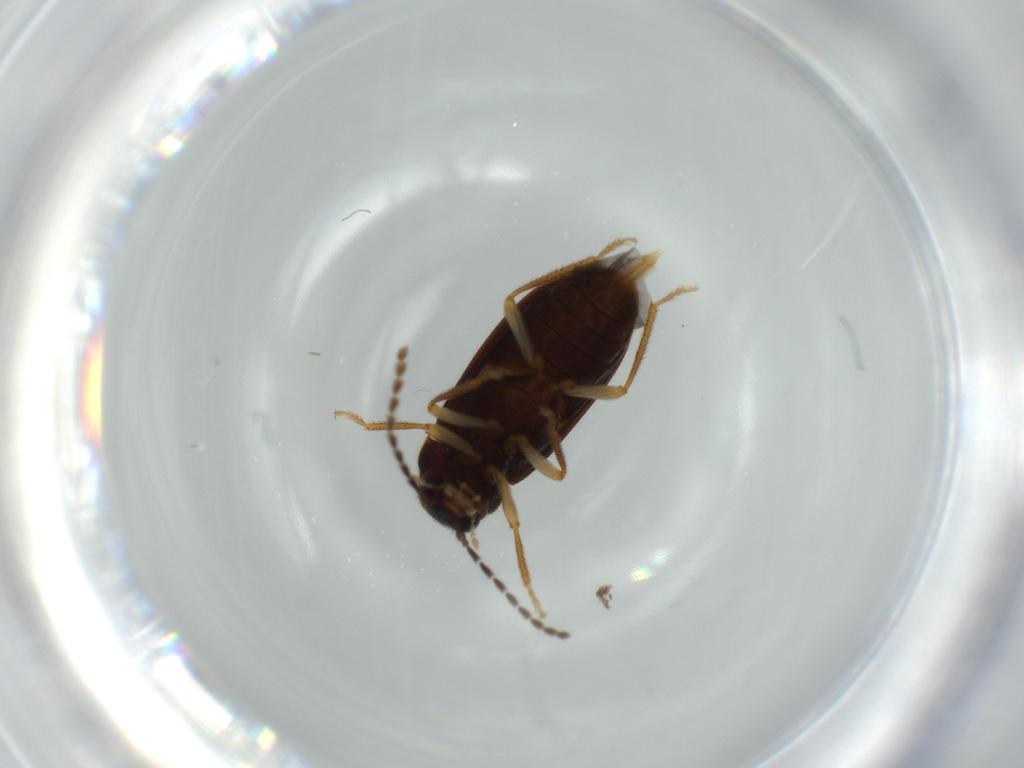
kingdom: Animalia
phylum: Arthropoda
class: Insecta
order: Coleoptera
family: Ptilodactylidae
